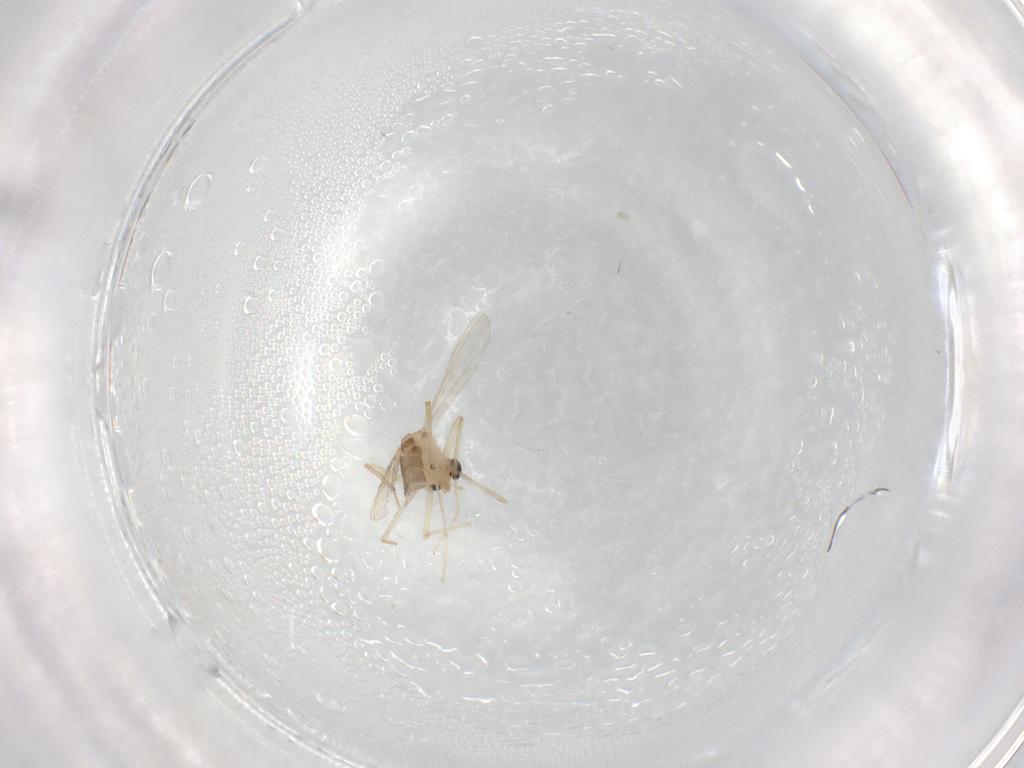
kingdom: Animalia
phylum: Arthropoda
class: Insecta
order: Diptera
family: Chironomidae
